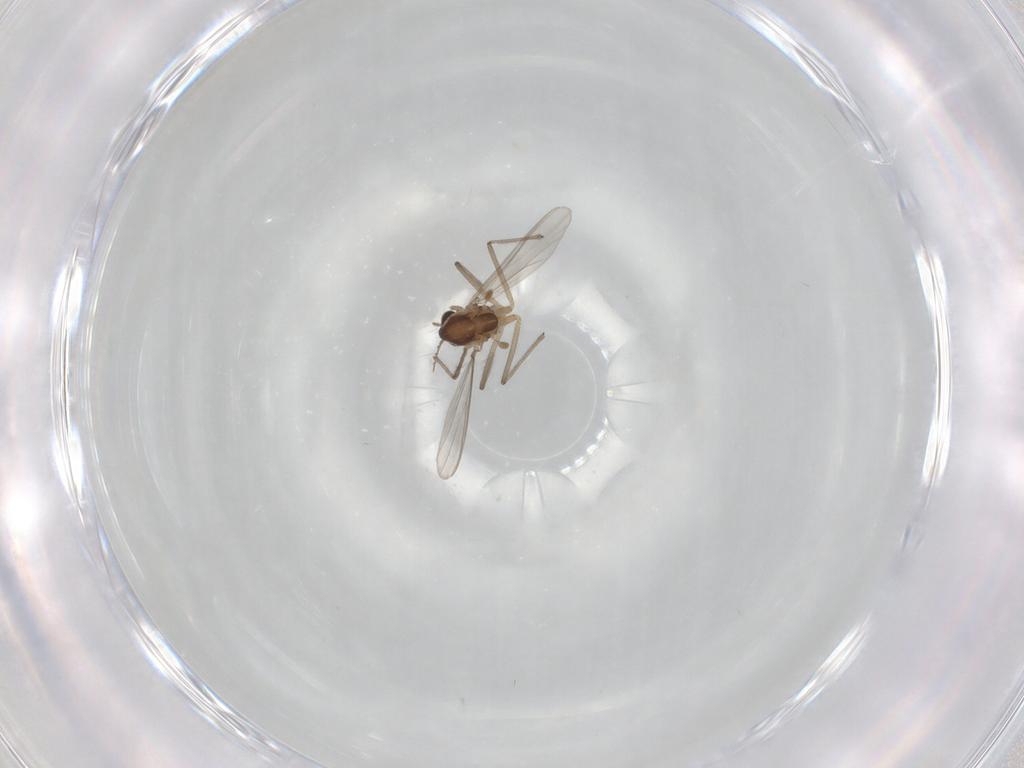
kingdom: Animalia
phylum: Arthropoda
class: Insecta
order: Diptera
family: Chironomidae
